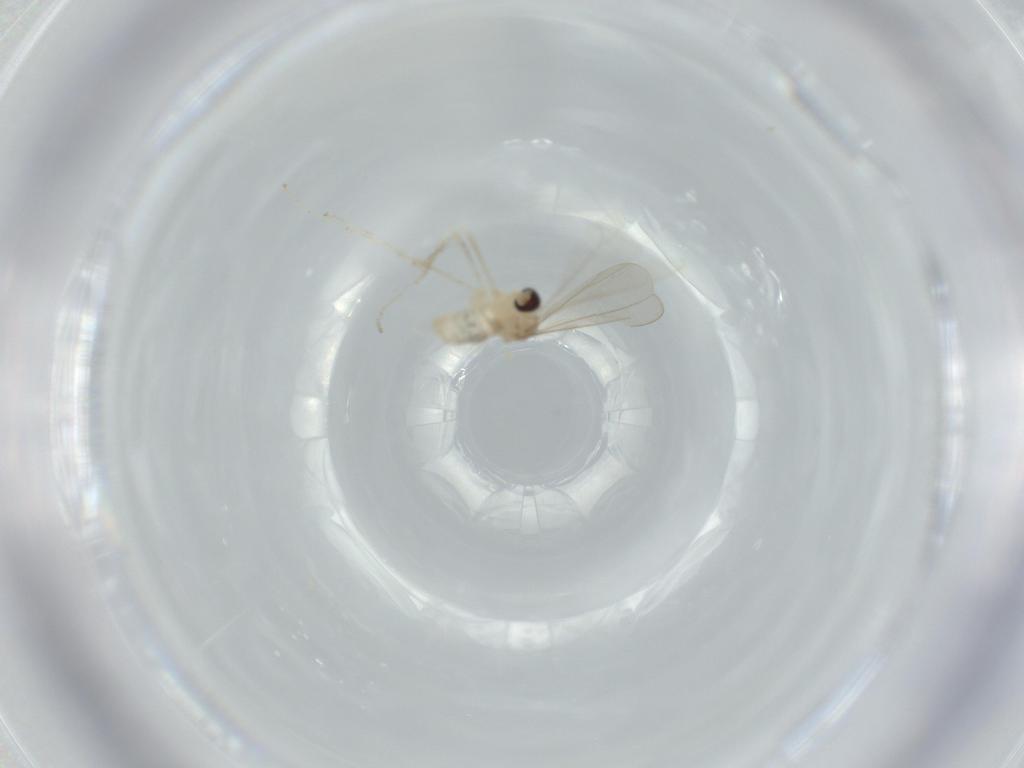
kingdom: Animalia
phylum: Arthropoda
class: Insecta
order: Diptera
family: Cecidomyiidae
